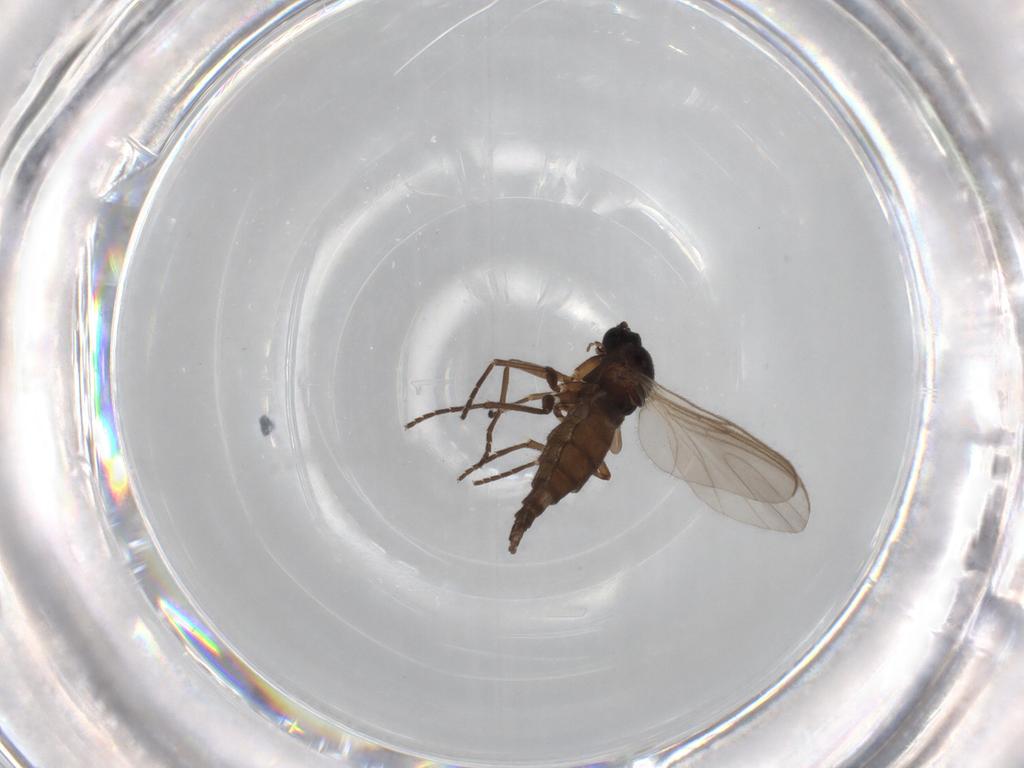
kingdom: Animalia
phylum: Arthropoda
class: Insecta
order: Diptera
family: Sciaridae
